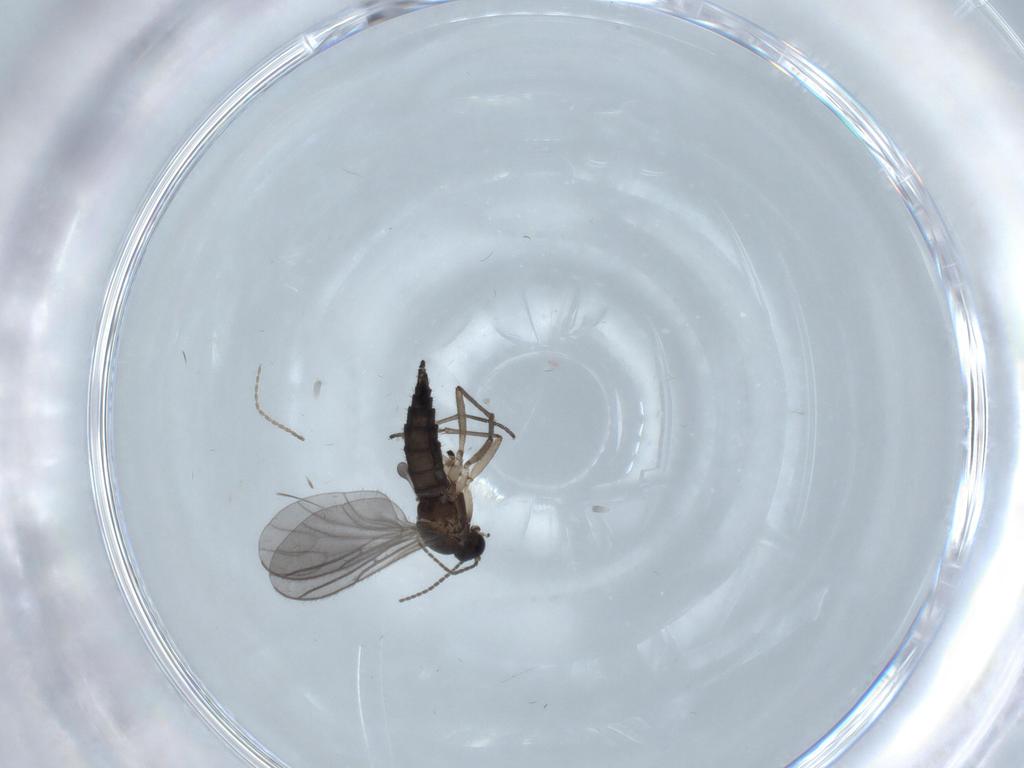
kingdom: Animalia
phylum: Arthropoda
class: Insecta
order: Diptera
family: Sciaridae
